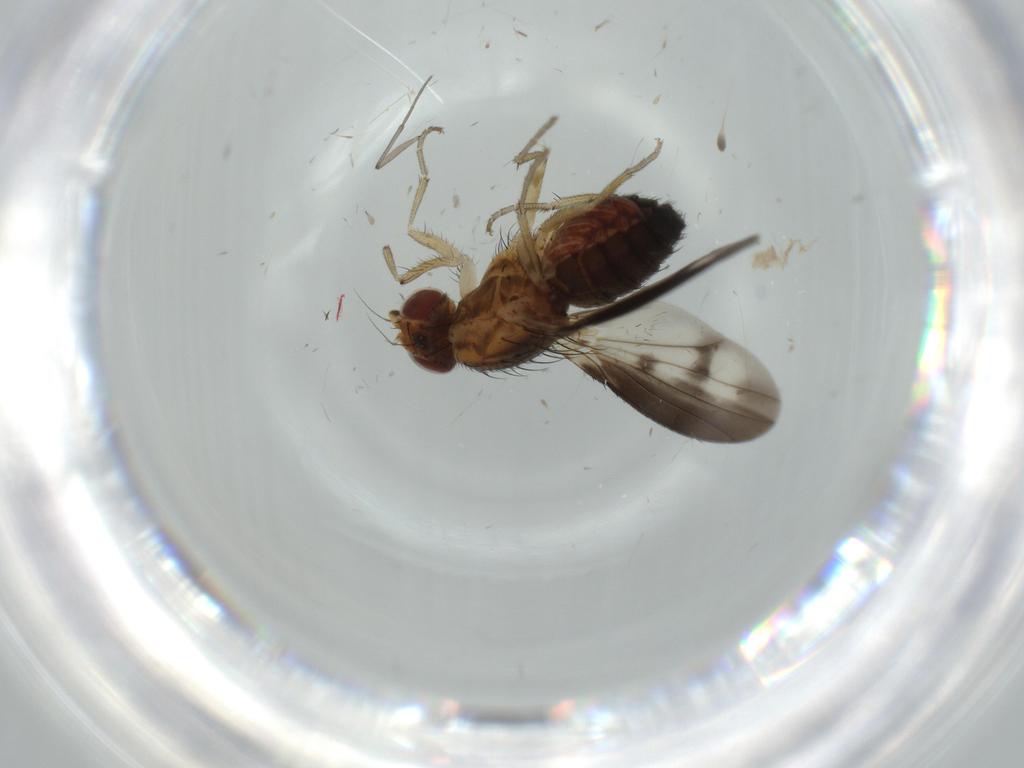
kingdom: Animalia
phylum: Arthropoda
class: Insecta
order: Diptera
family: Heleomyzidae
